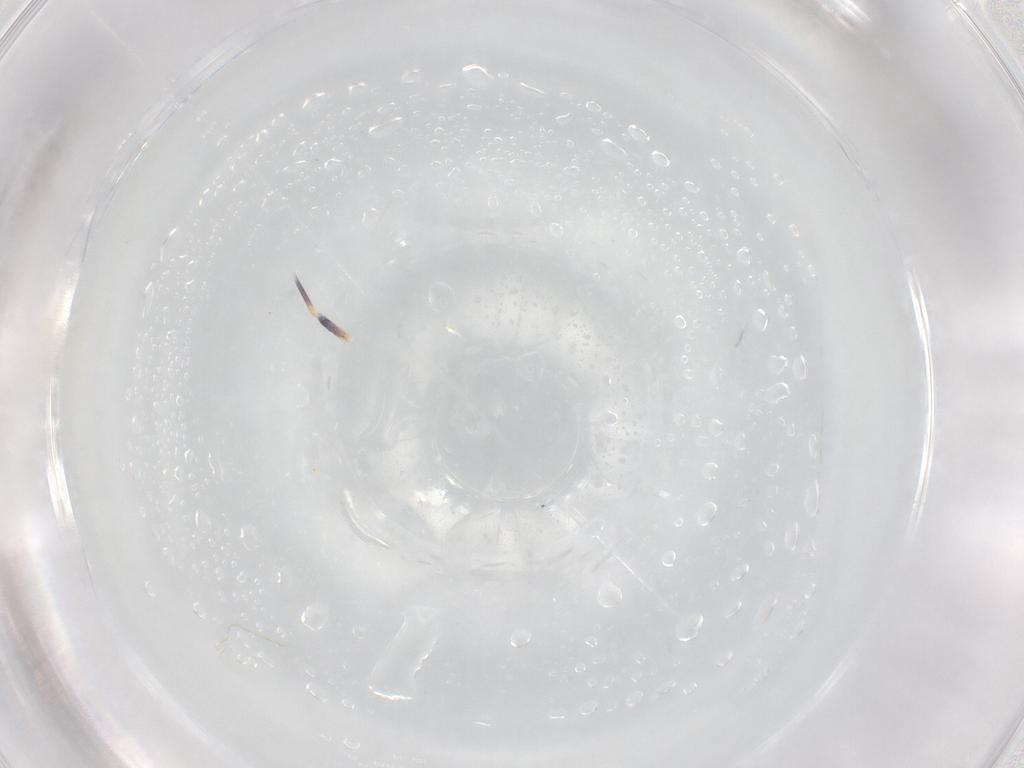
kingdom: Animalia
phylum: Arthropoda
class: Arachnida
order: Trombidiformes
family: Erythraeidae
